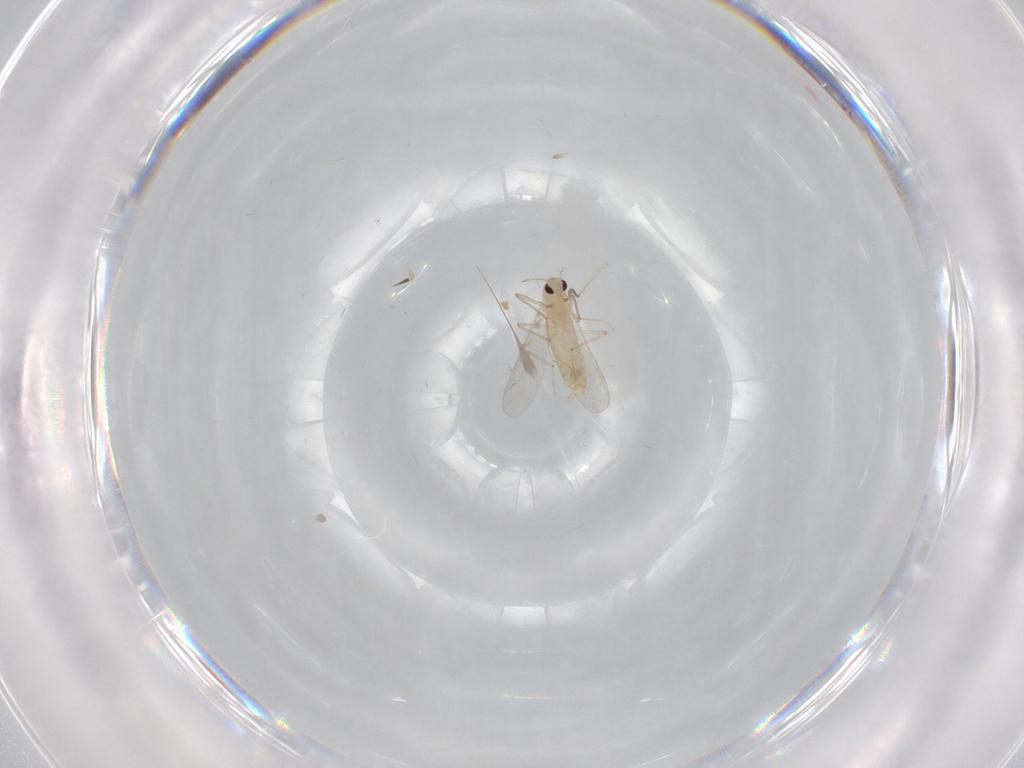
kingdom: Animalia
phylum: Arthropoda
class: Insecta
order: Diptera
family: Chironomidae
